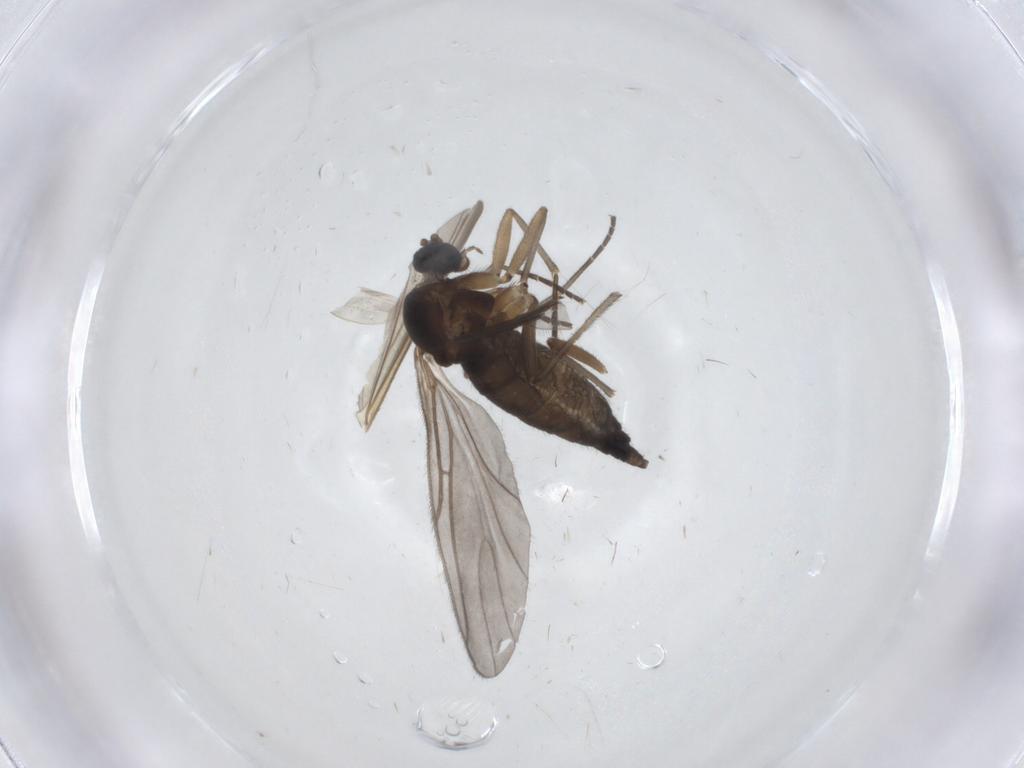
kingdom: Animalia
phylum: Arthropoda
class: Insecta
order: Diptera
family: Sciaridae
